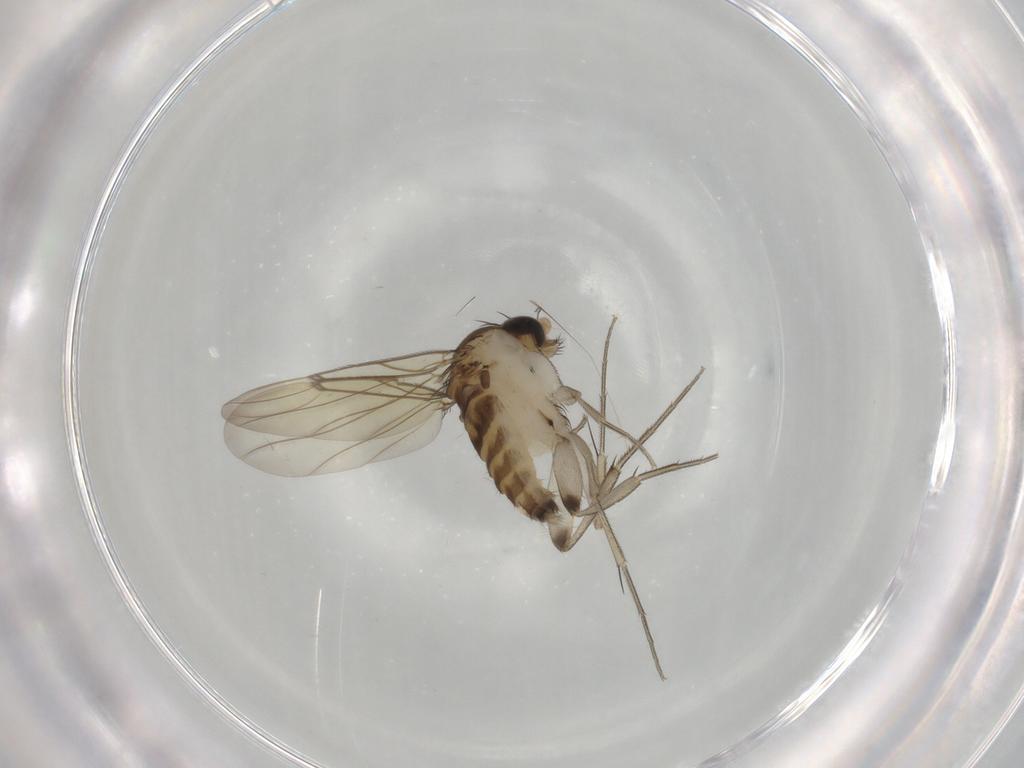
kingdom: Animalia
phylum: Arthropoda
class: Insecta
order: Diptera
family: Phoridae
